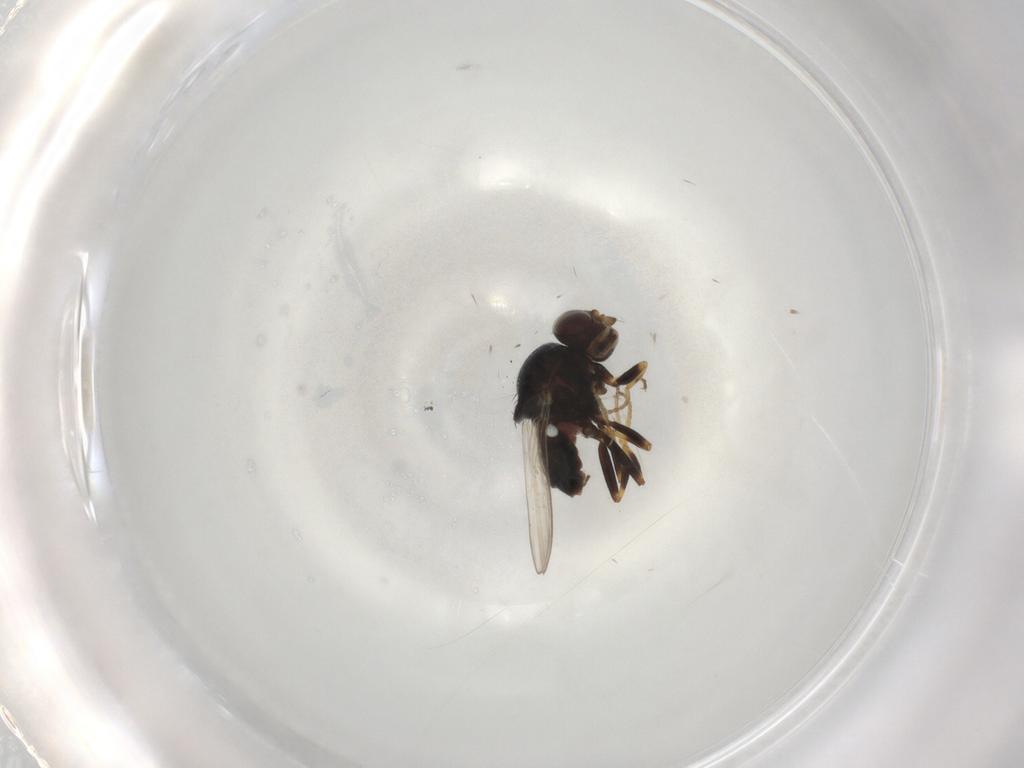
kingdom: Animalia
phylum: Arthropoda
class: Insecta
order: Diptera
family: Chloropidae
